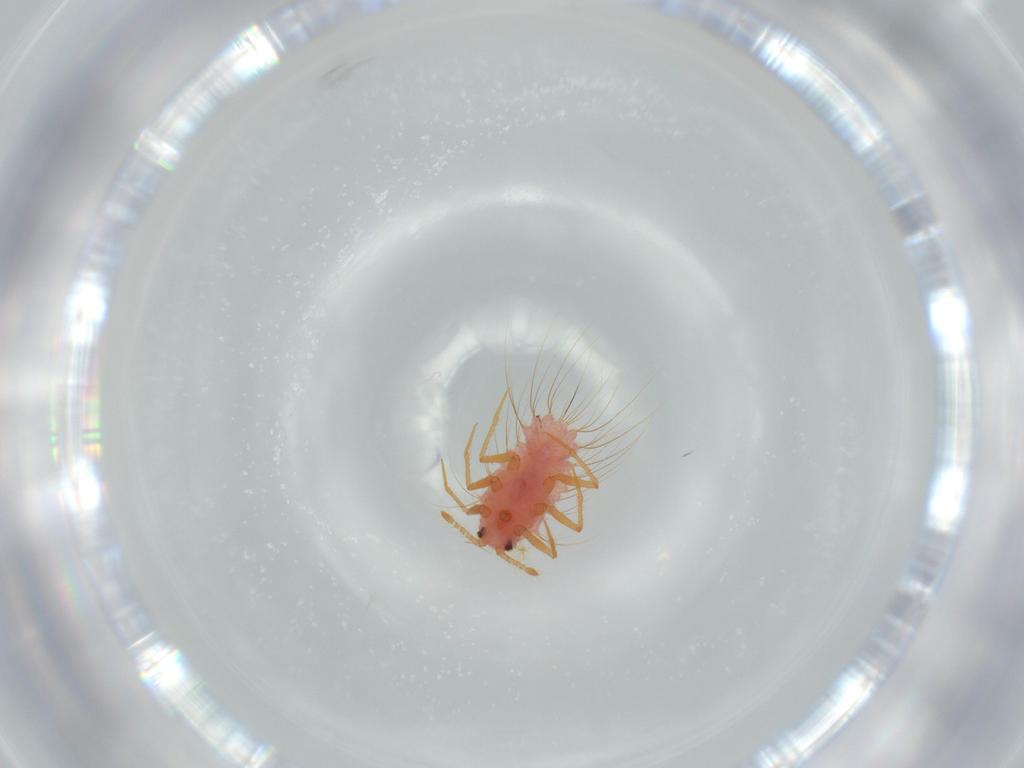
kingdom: Animalia
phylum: Arthropoda
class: Insecta
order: Hemiptera
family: Monophlebidae
